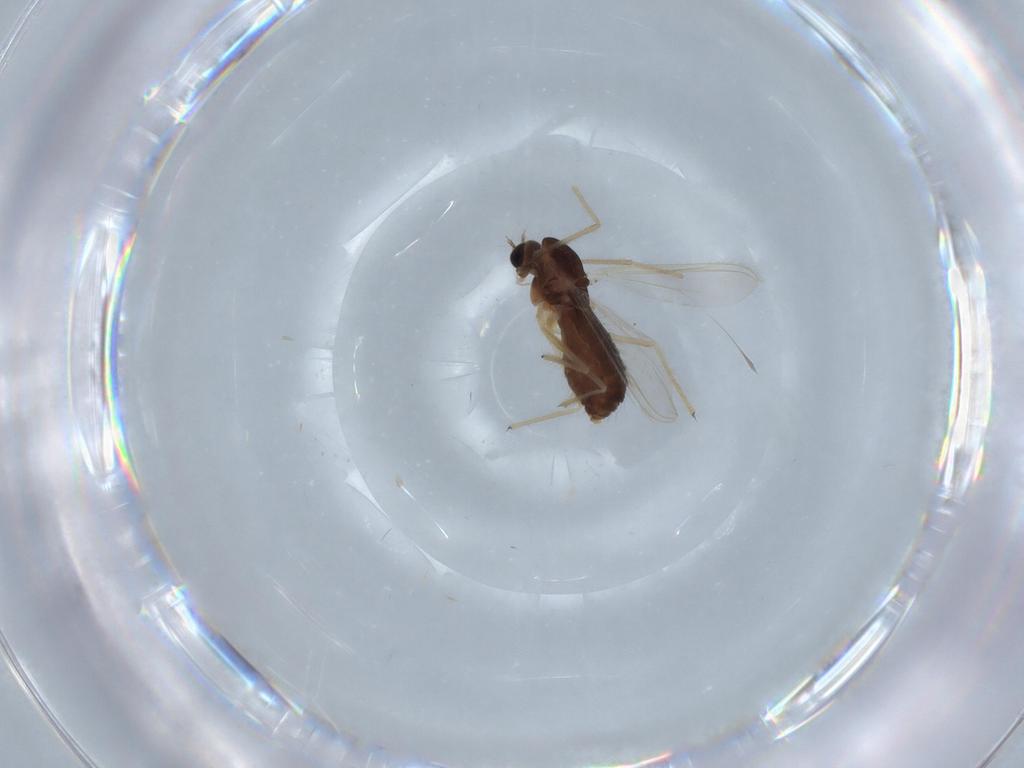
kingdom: Animalia
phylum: Arthropoda
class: Insecta
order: Diptera
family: Chironomidae
